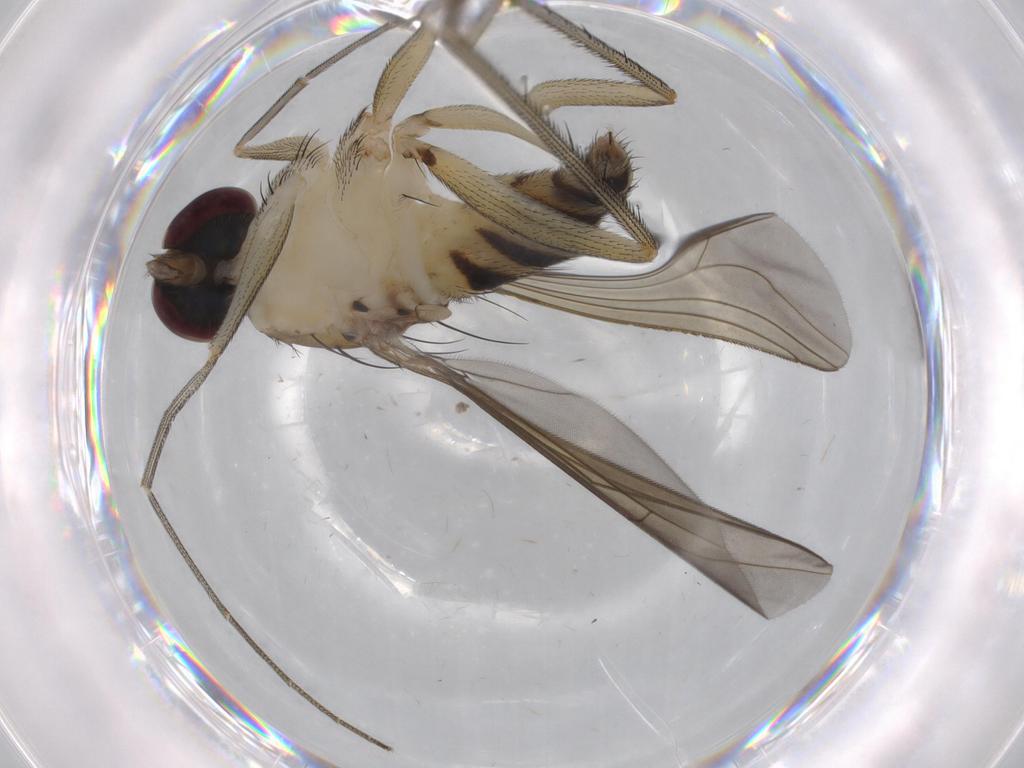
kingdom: Animalia
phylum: Arthropoda
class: Insecta
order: Diptera
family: Dolichopodidae
